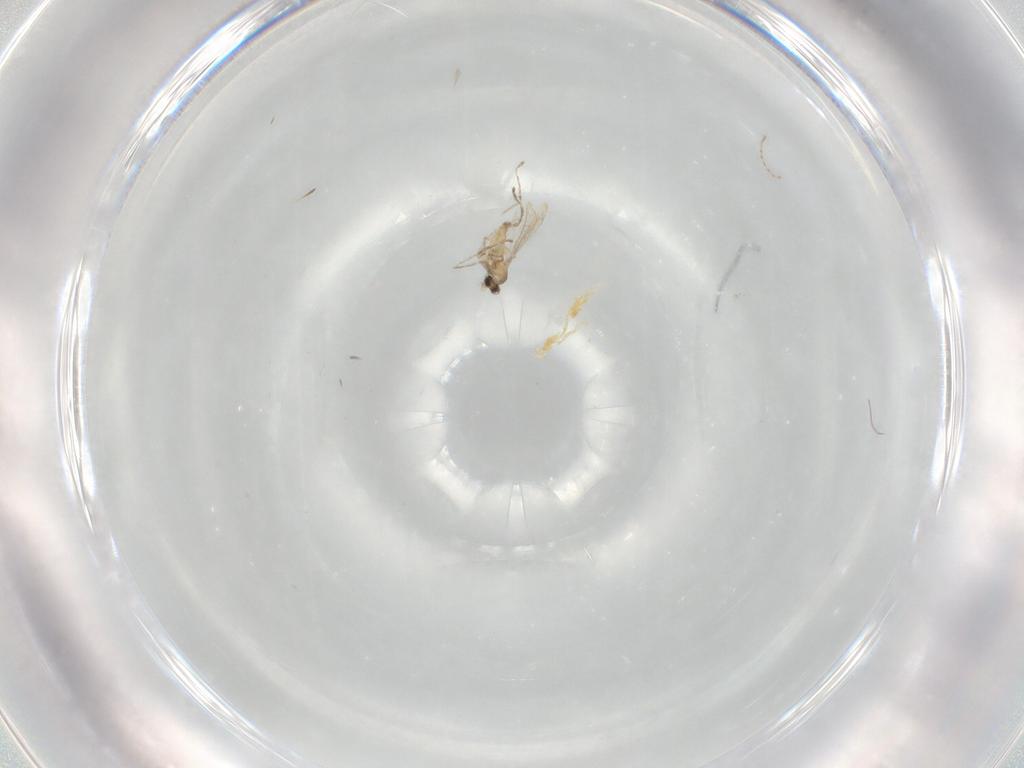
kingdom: Animalia
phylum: Arthropoda
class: Insecta
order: Diptera
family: Cecidomyiidae
